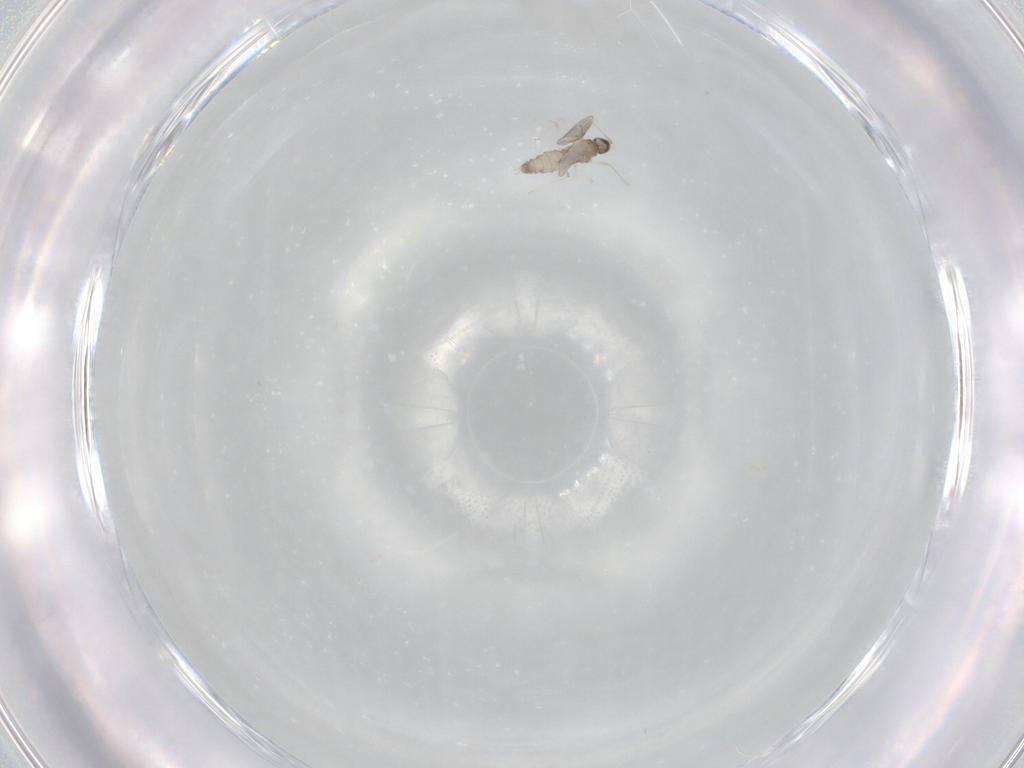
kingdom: Animalia
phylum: Arthropoda
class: Insecta
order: Diptera
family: Cecidomyiidae
